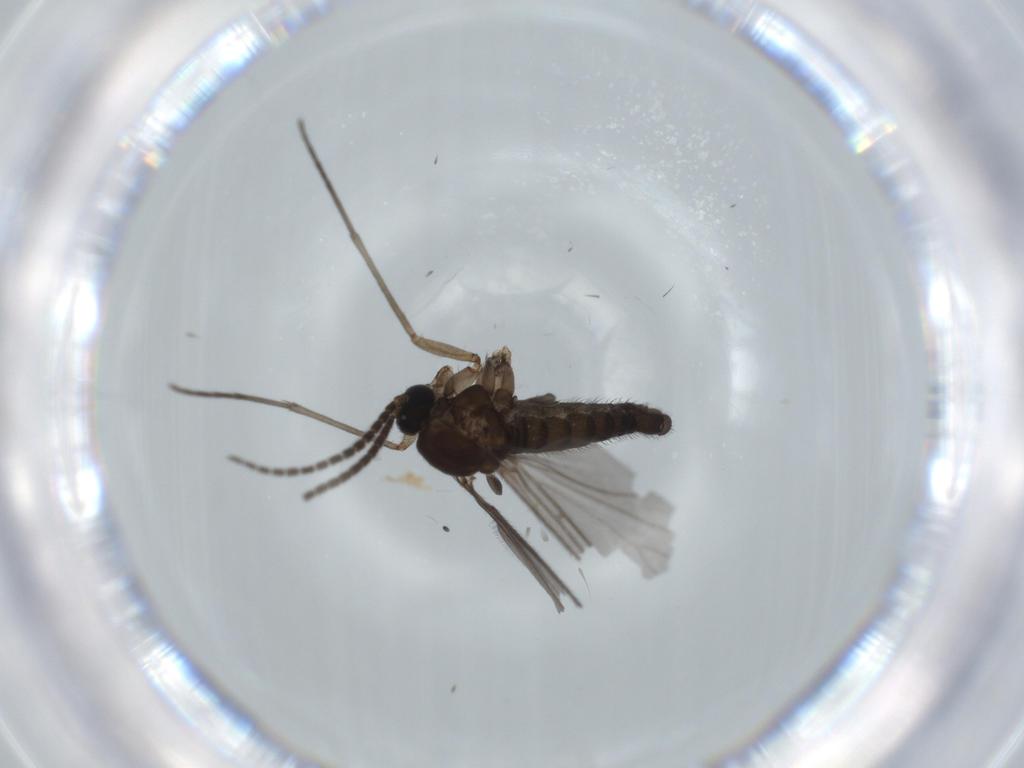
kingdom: Animalia
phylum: Arthropoda
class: Insecta
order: Diptera
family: Sciaridae
